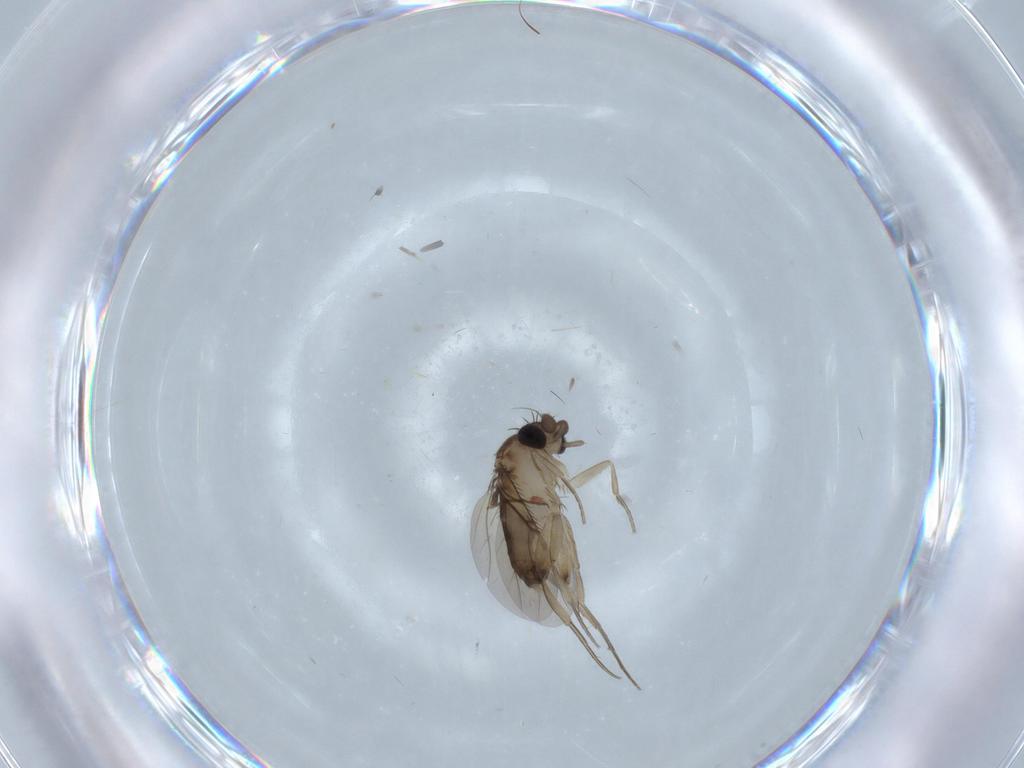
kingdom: Animalia
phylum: Arthropoda
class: Insecta
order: Diptera
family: Phoridae
